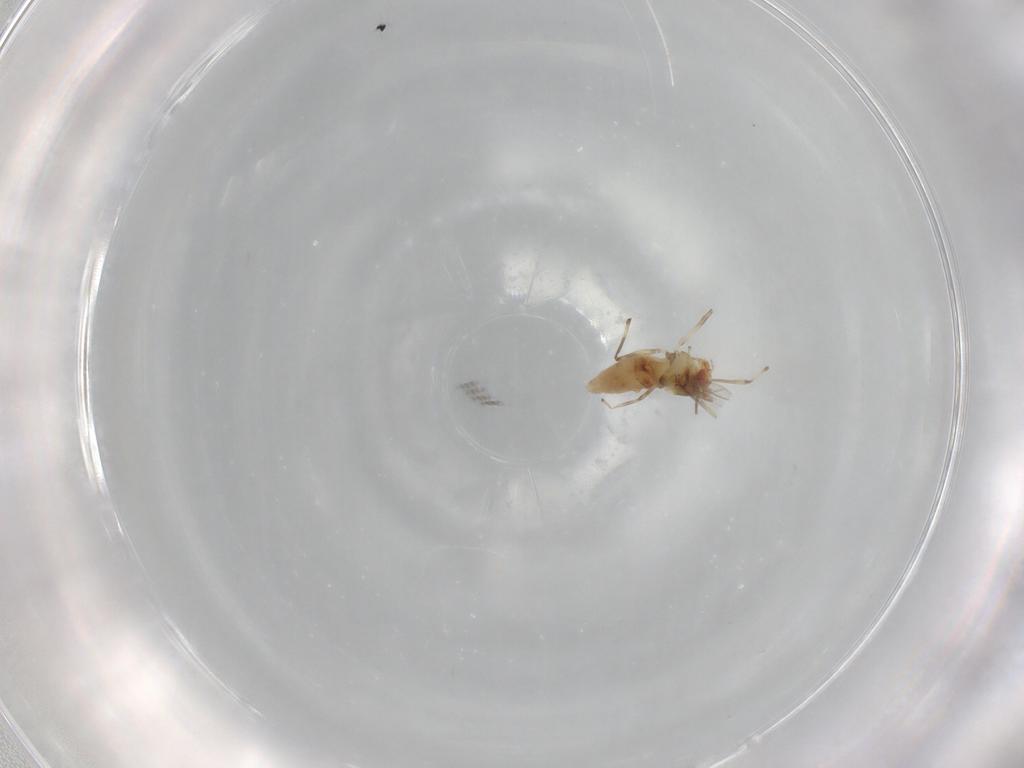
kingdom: Animalia
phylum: Arthropoda
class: Insecta
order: Diptera
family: Chironomidae
